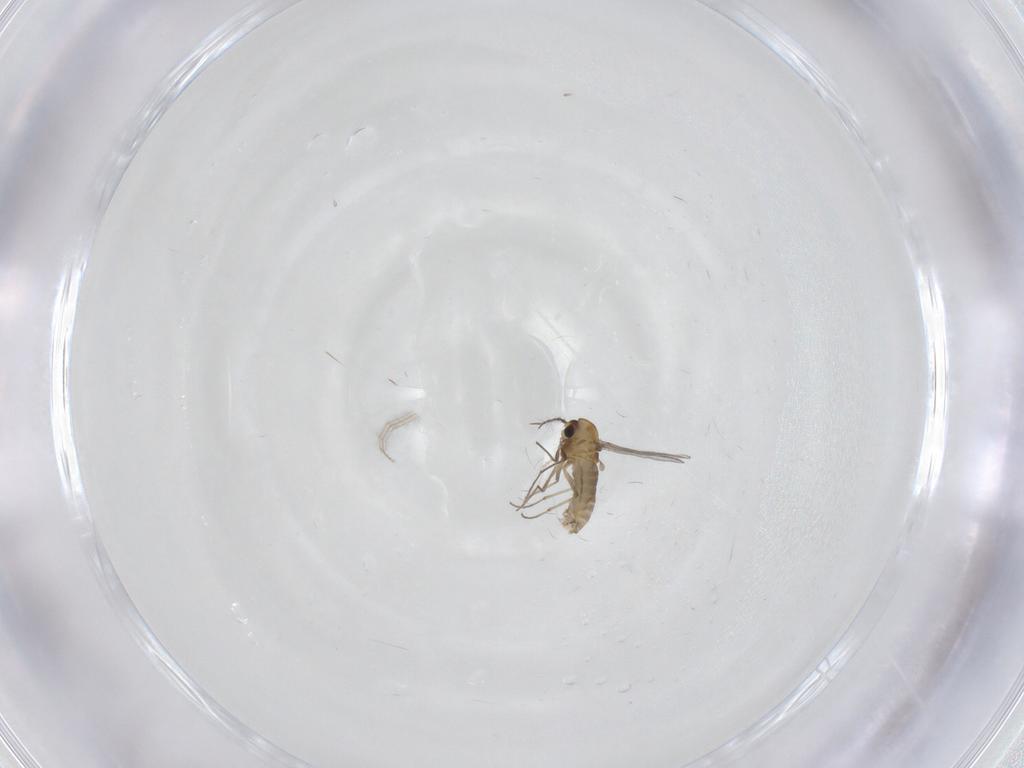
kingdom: Animalia
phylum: Arthropoda
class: Insecta
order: Diptera
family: Chironomidae
